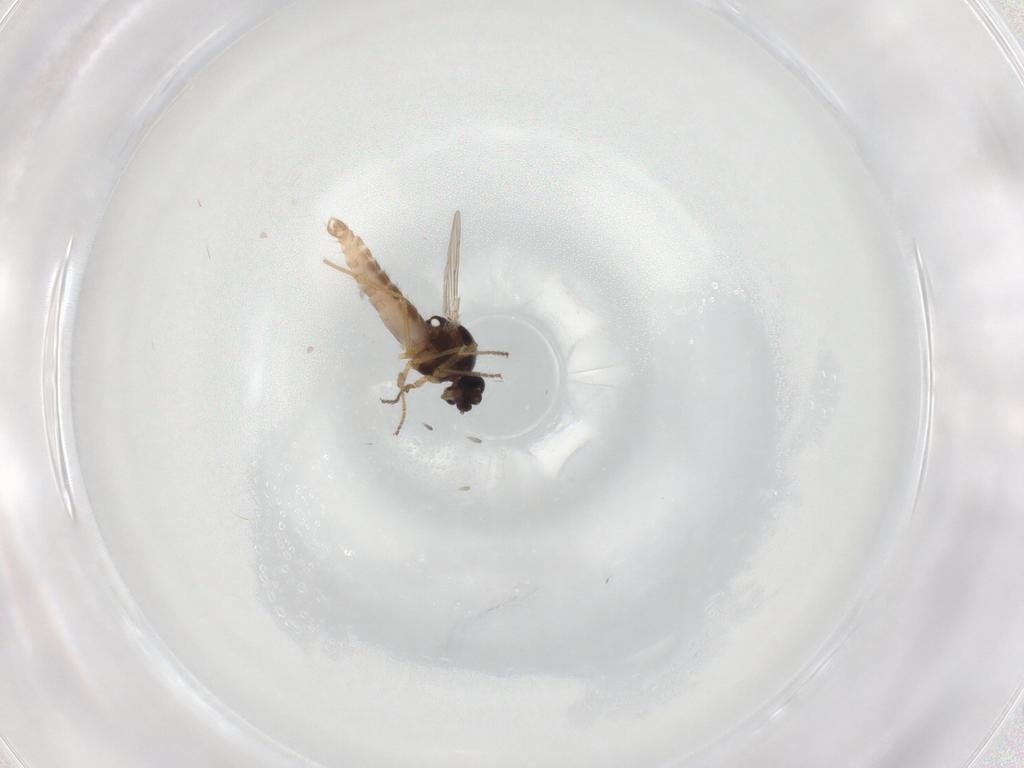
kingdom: Animalia
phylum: Arthropoda
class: Insecta
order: Diptera
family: Ceratopogonidae
